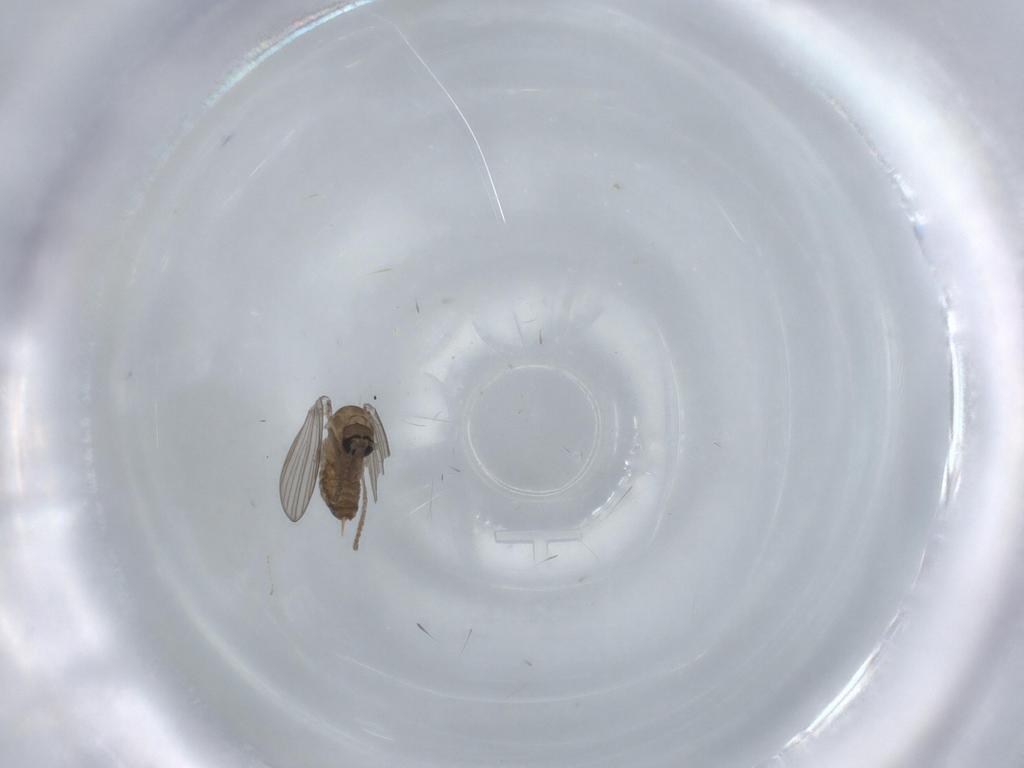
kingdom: Animalia
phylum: Arthropoda
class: Insecta
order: Diptera
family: Psychodidae
